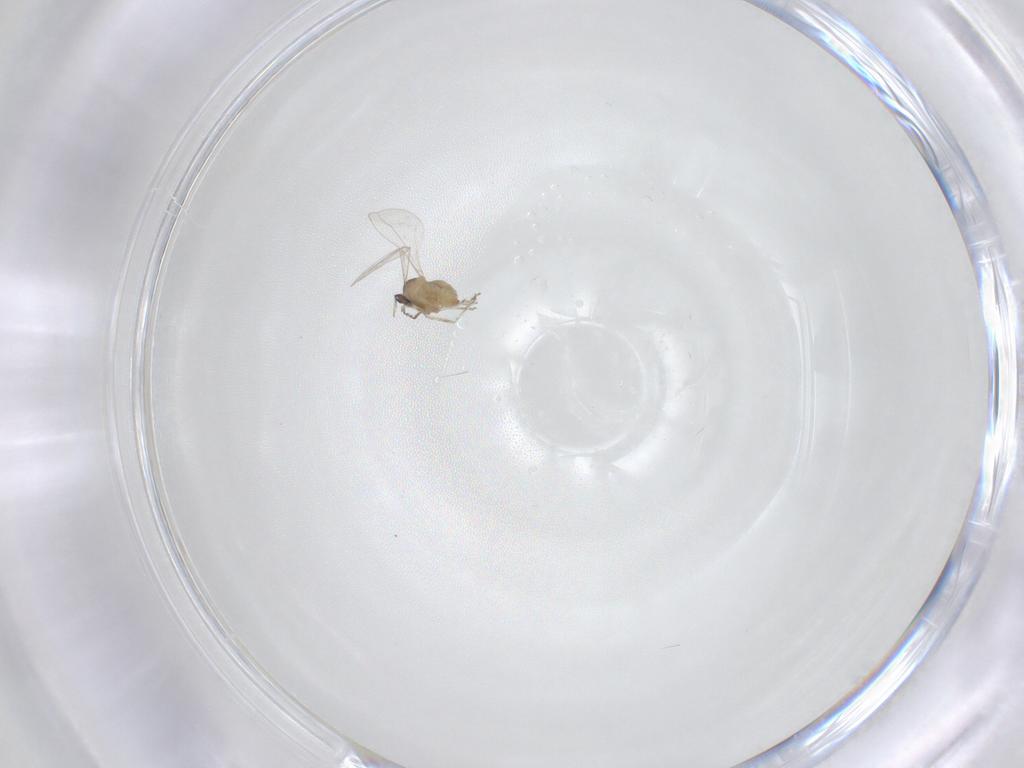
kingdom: Animalia
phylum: Arthropoda
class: Insecta
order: Diptera
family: Cecidomyiidae
